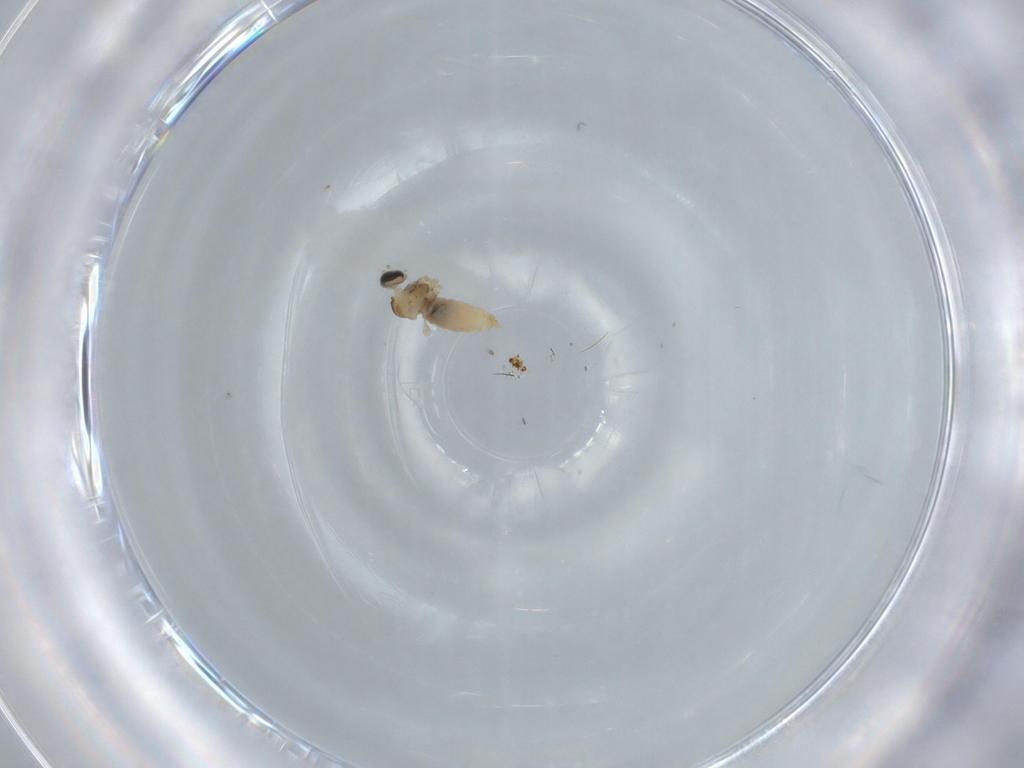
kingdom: Animalia
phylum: Arthropoda
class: Insecta
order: Diptera
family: Cecidomyiidae
